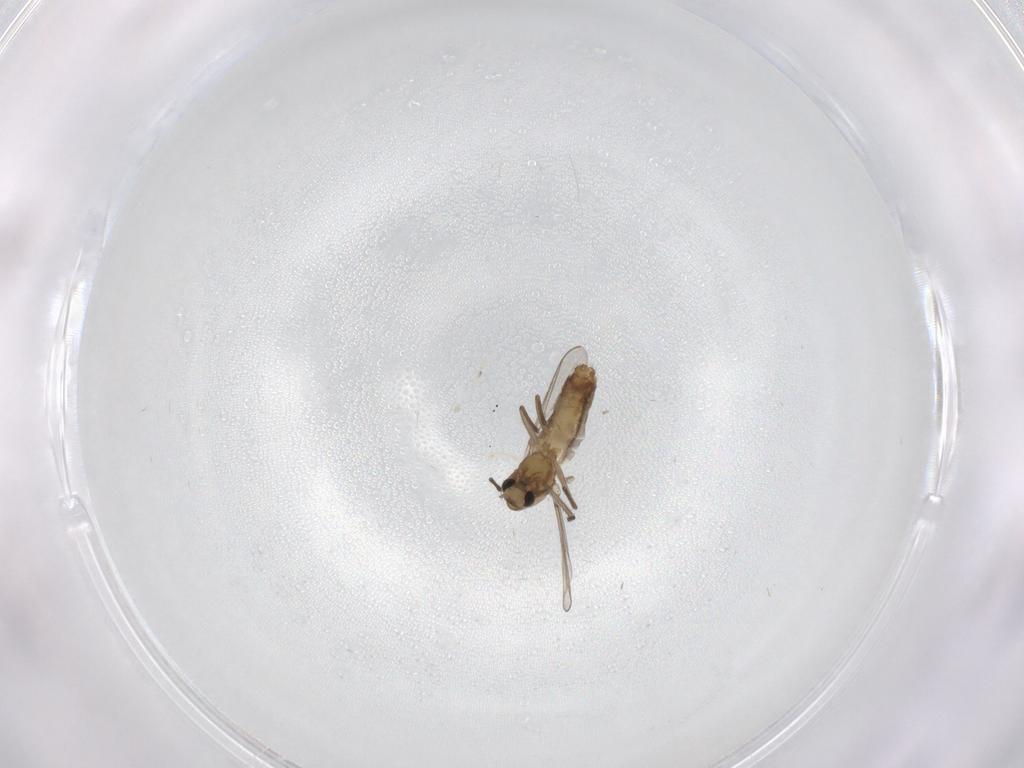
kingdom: Animalia
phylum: Arthropoda
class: Insecta
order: Diptera
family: Chironomidae
